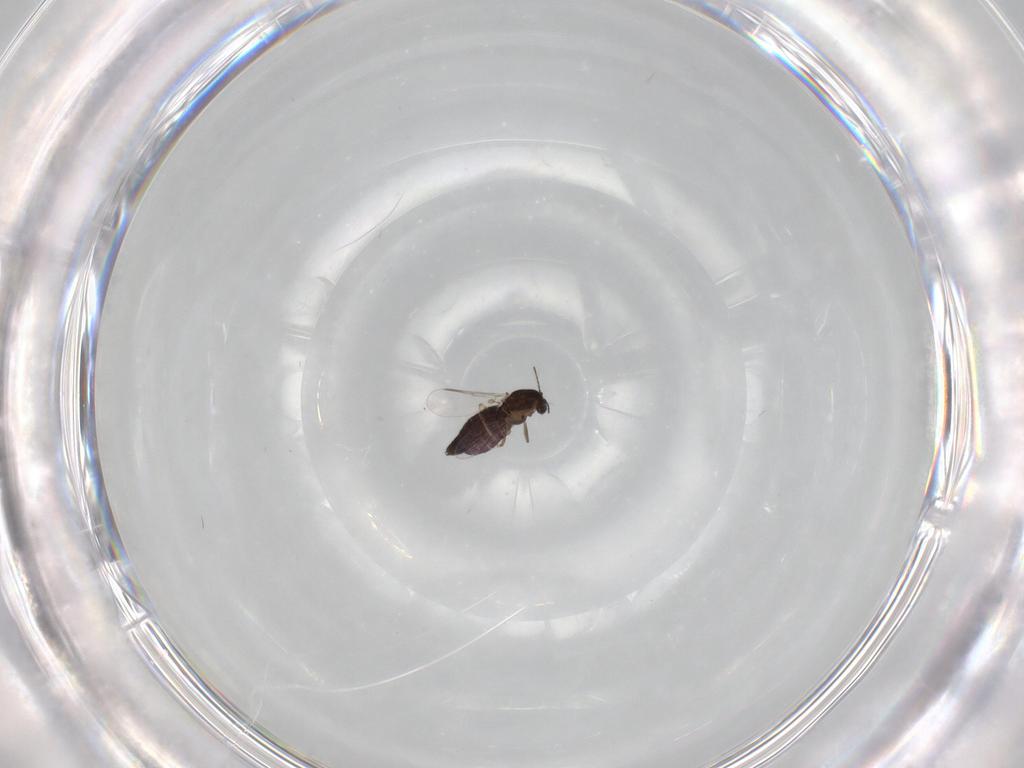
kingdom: Animalia
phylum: Arthropoda
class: Insecta
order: Diptera
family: Chironomidae
